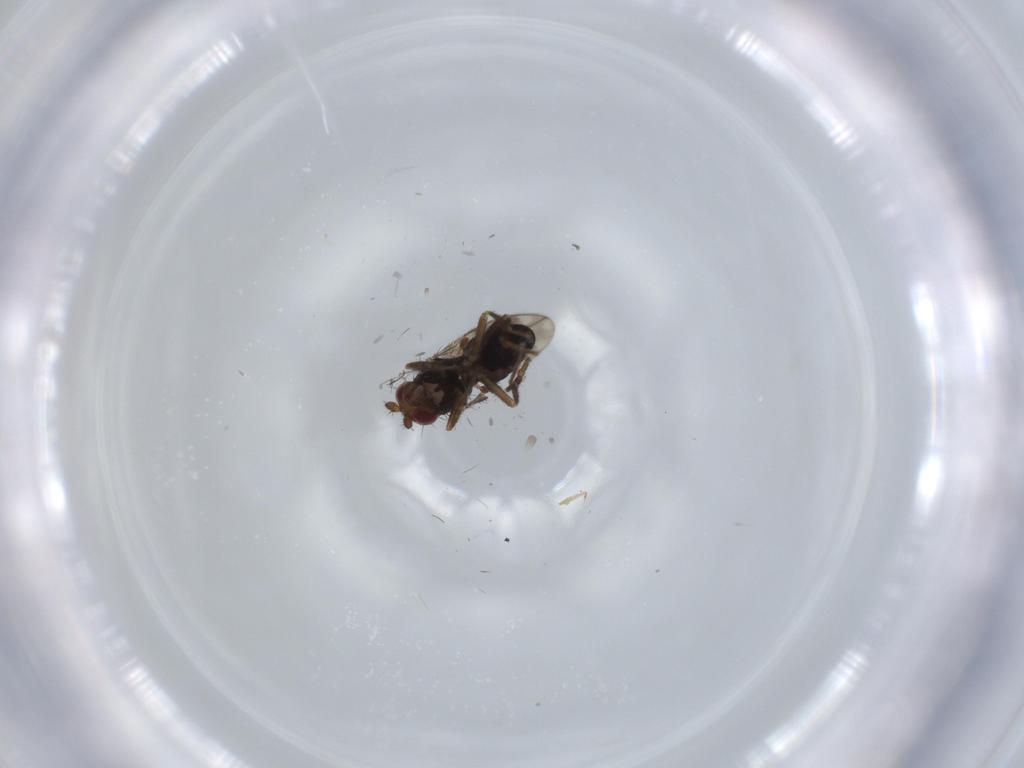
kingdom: Animalia
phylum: Arthropoda
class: Insecta
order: Diptera
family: Sphaeroceridae
